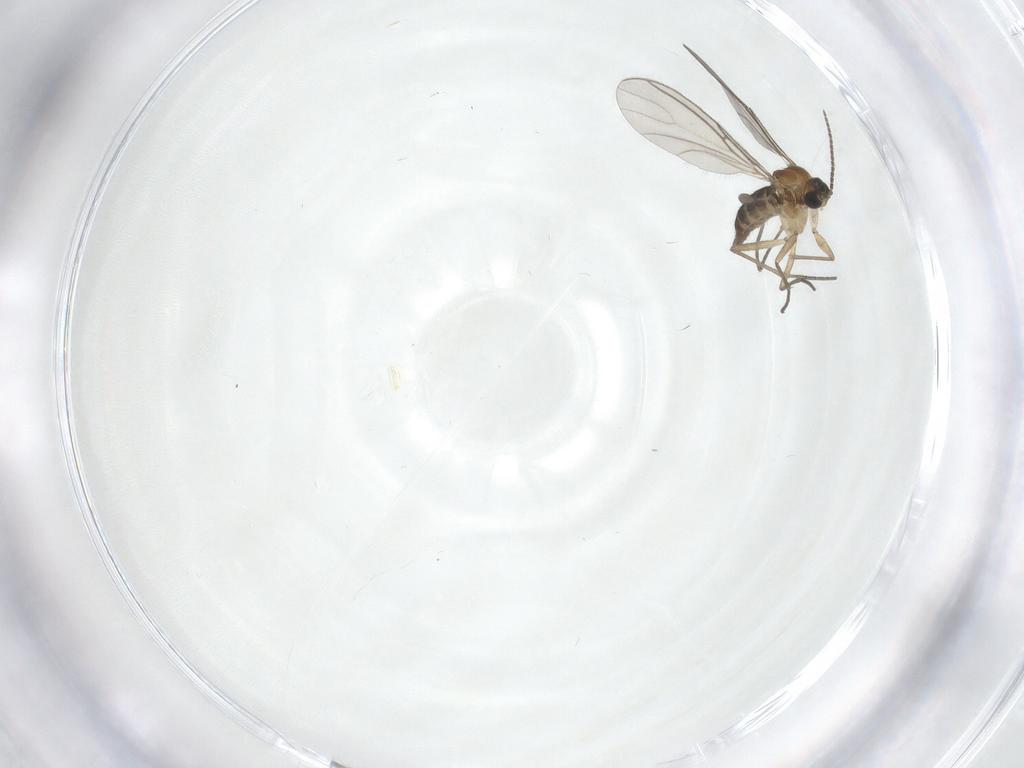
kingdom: Animalia
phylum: Arthropoda
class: Insecta
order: Diptera
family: Sciaridae
